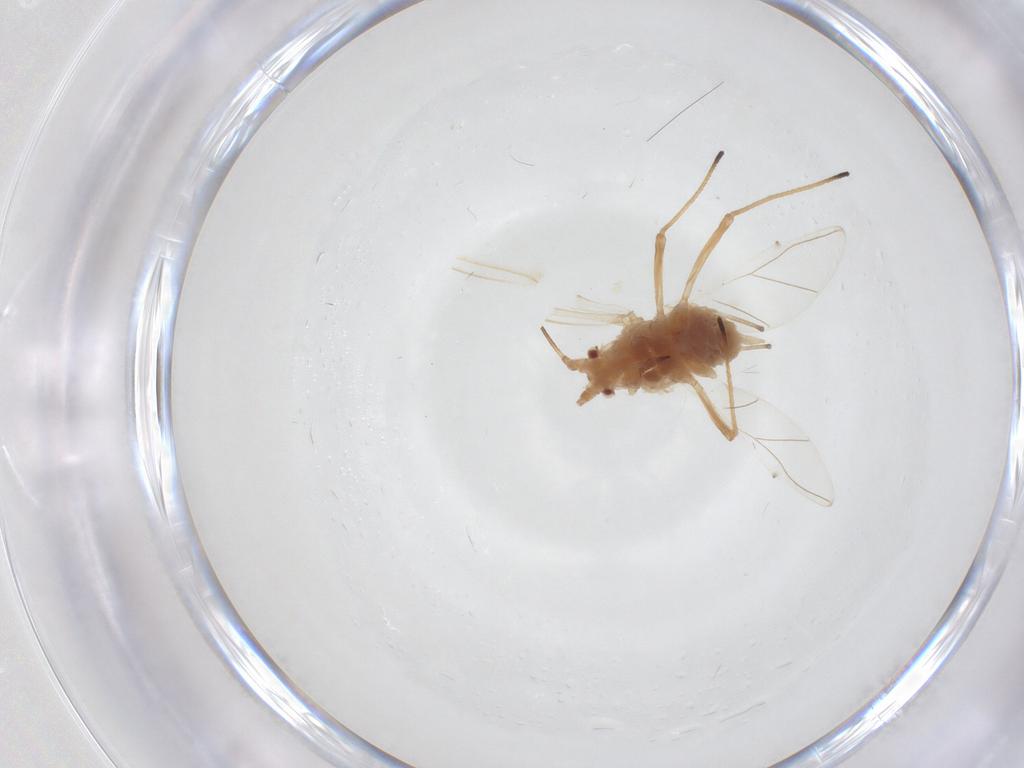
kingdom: Animalia
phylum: Arthropoda
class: Insecta
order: Hemiptera
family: Aphididae
